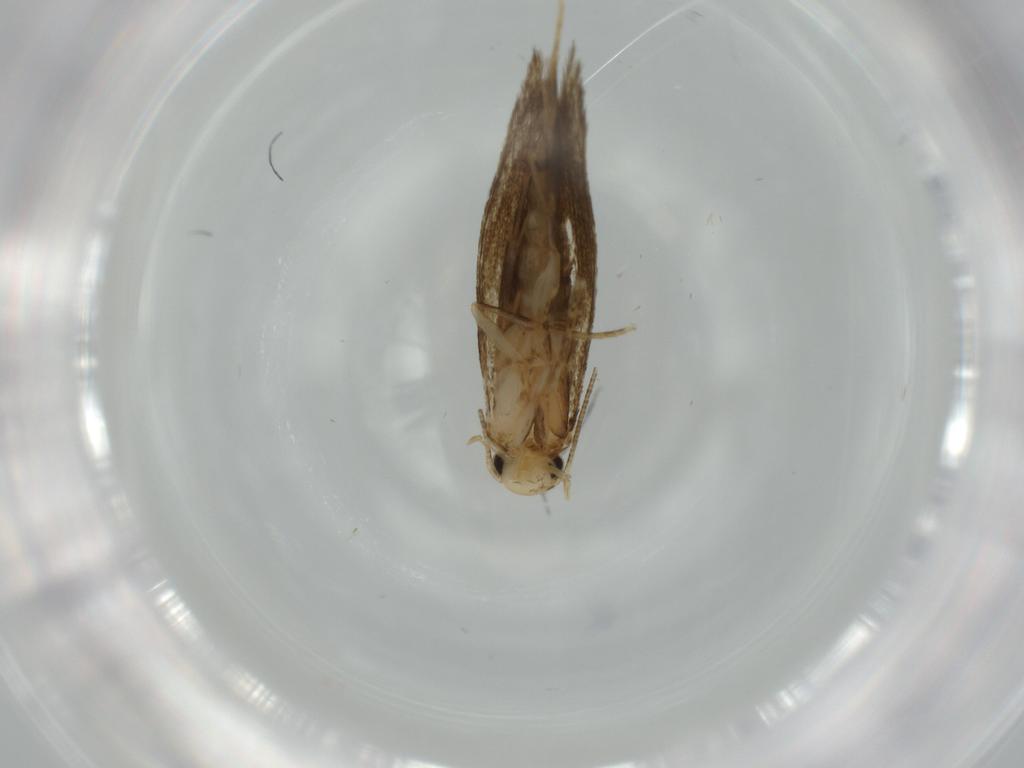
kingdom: Animalia
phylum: Arthropoda
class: Insecta
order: Lepidoptera
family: Tineidae
